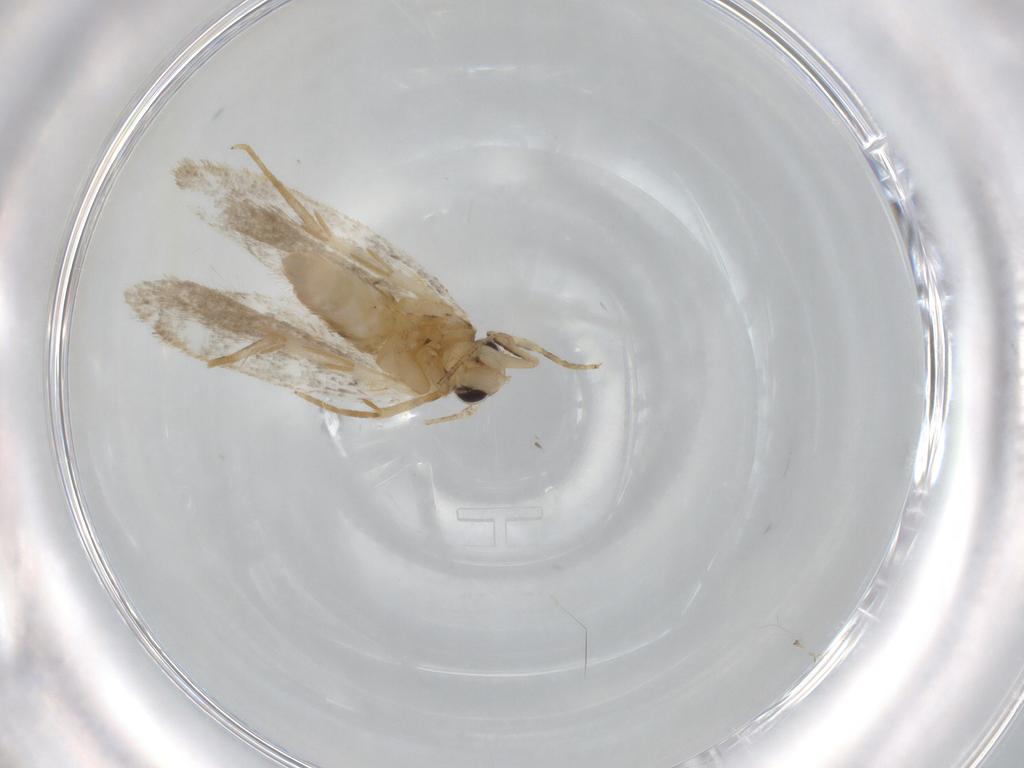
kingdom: Animalia
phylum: Arthropoda
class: Insecta
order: Lepidoptera
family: Autostichidae
